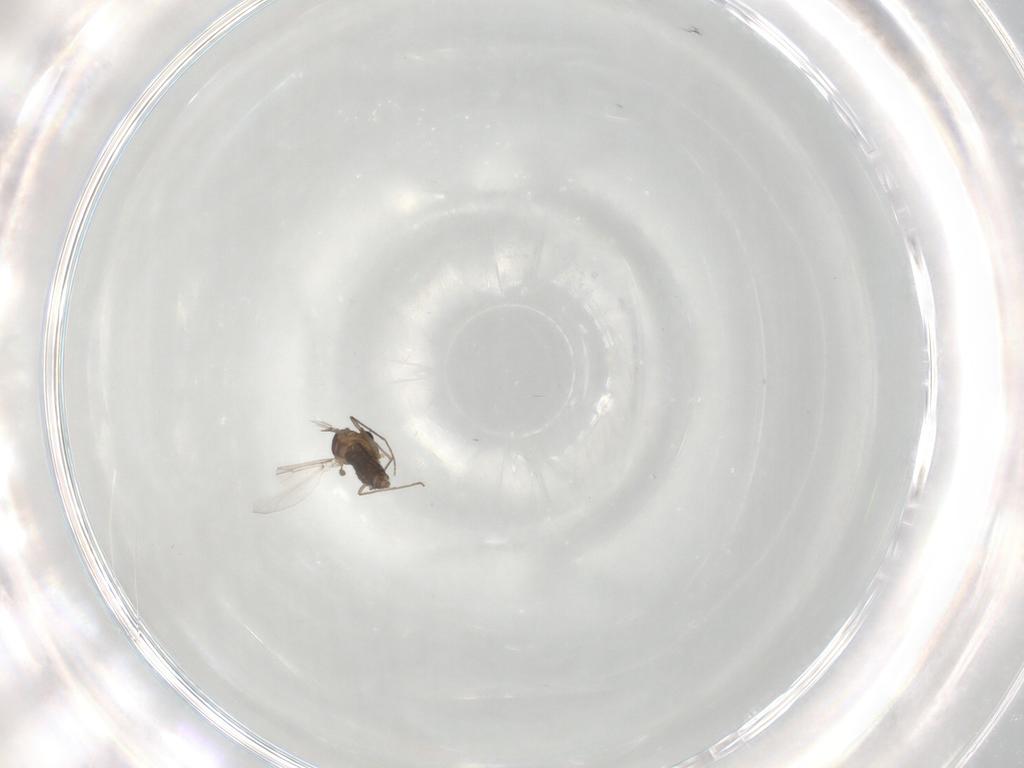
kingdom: Animalia
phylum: Arthropoda
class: Insecta
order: Diptera
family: Chironomidae
